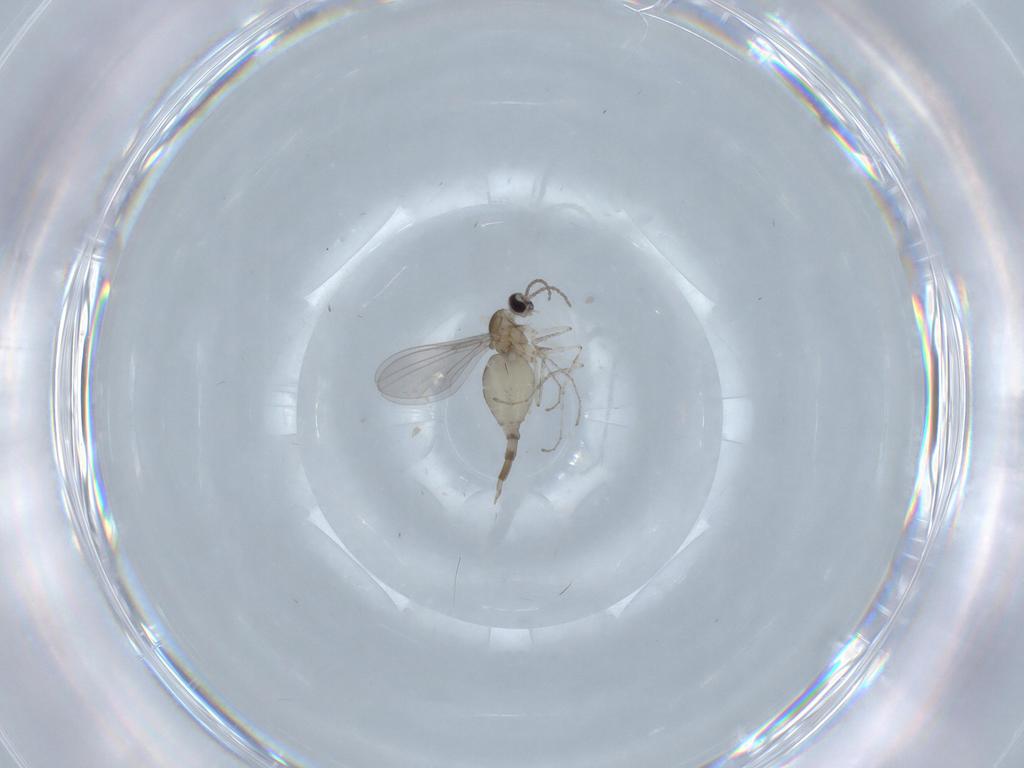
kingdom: Animalia
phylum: Arthropoda
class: Insecta
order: Diptera
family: Cecidomyiidae
